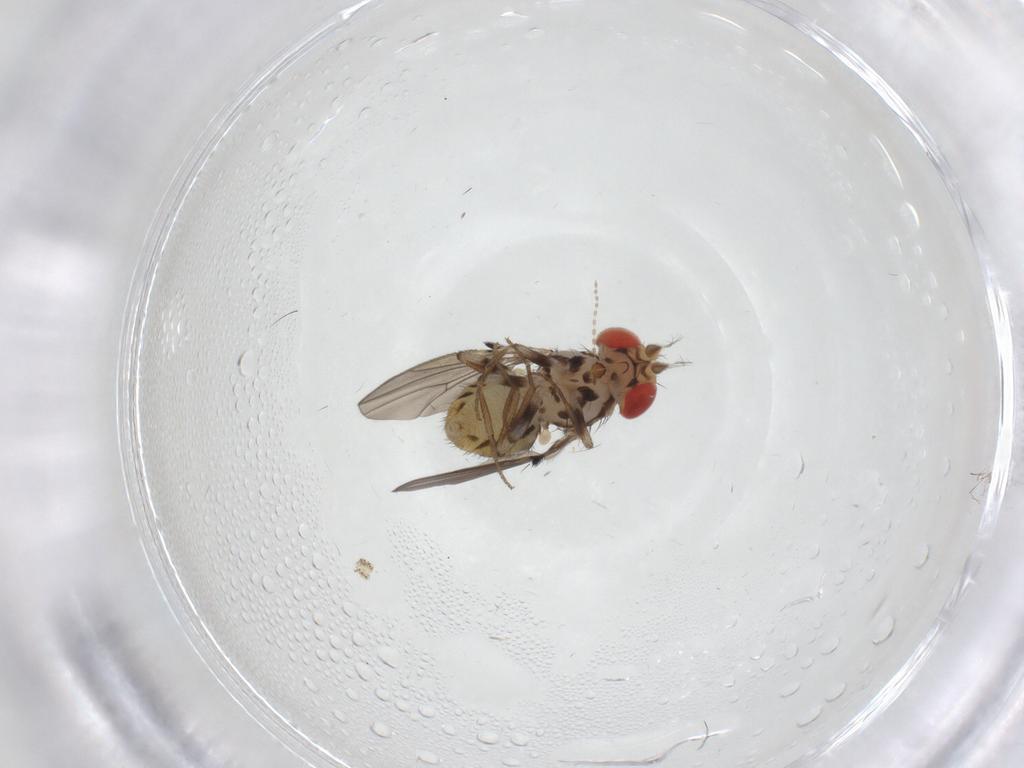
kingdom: Animalia
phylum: Arthropoda
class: Insecta
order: Diptera
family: Drosophilidae
